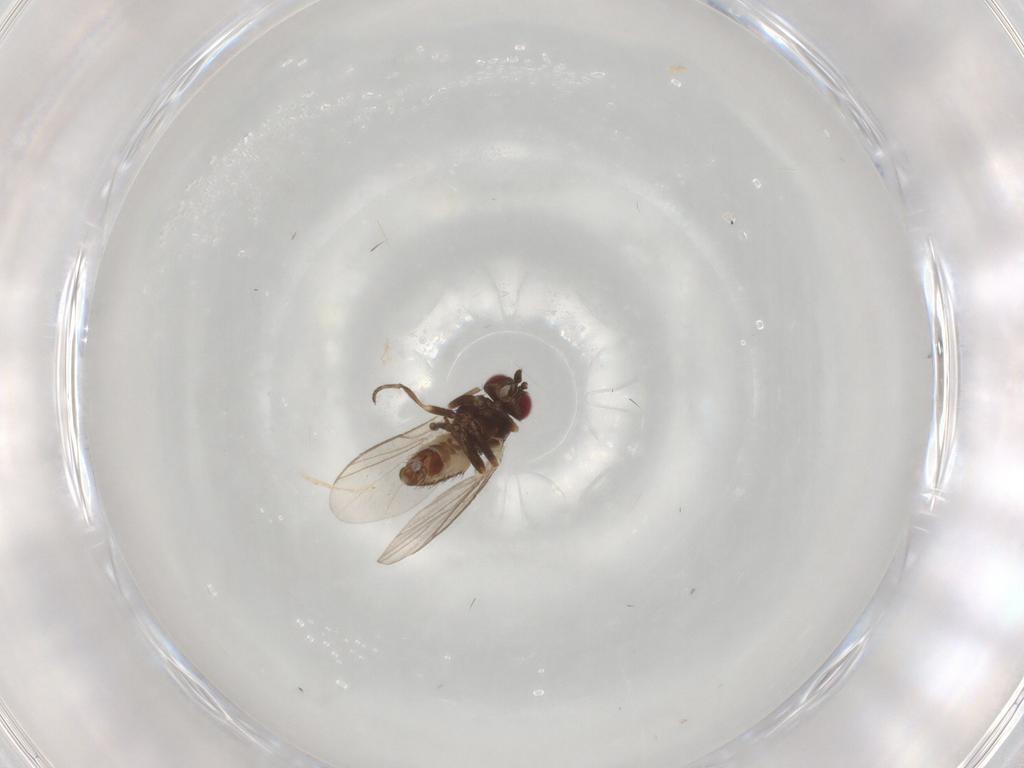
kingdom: Animalia
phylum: Arthropoda
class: Insecta
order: Diptera
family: Agromyzidae
